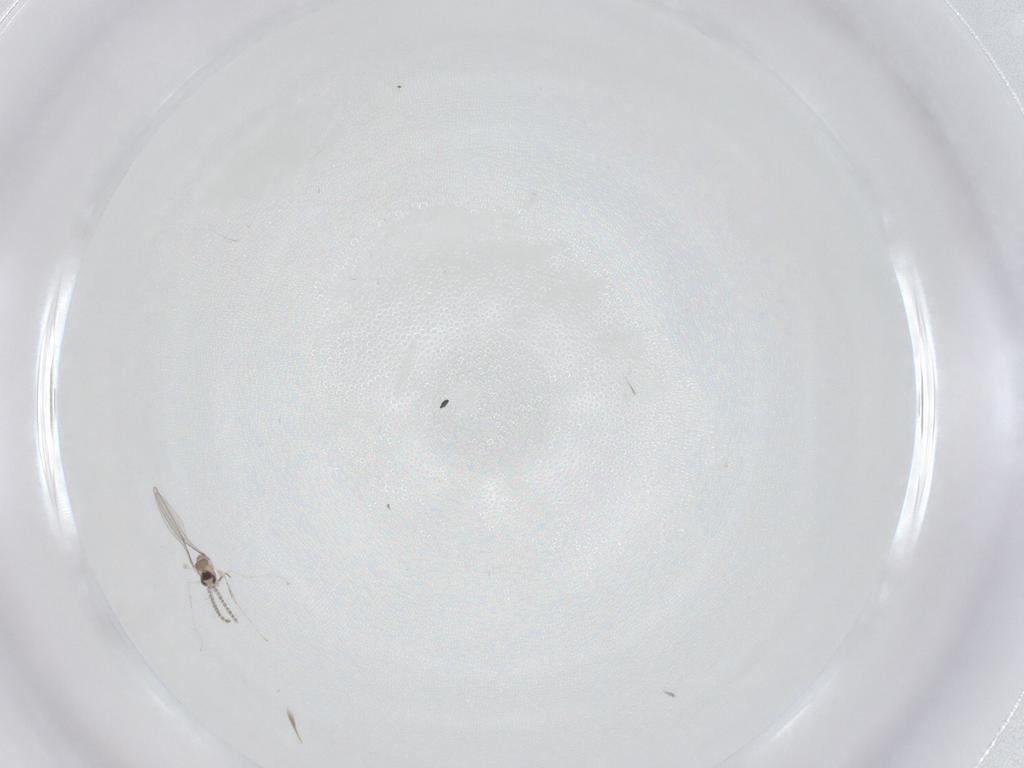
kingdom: Animalia
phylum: Arthropoda
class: Insecta
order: Diptera
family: Cecidomyiidae
